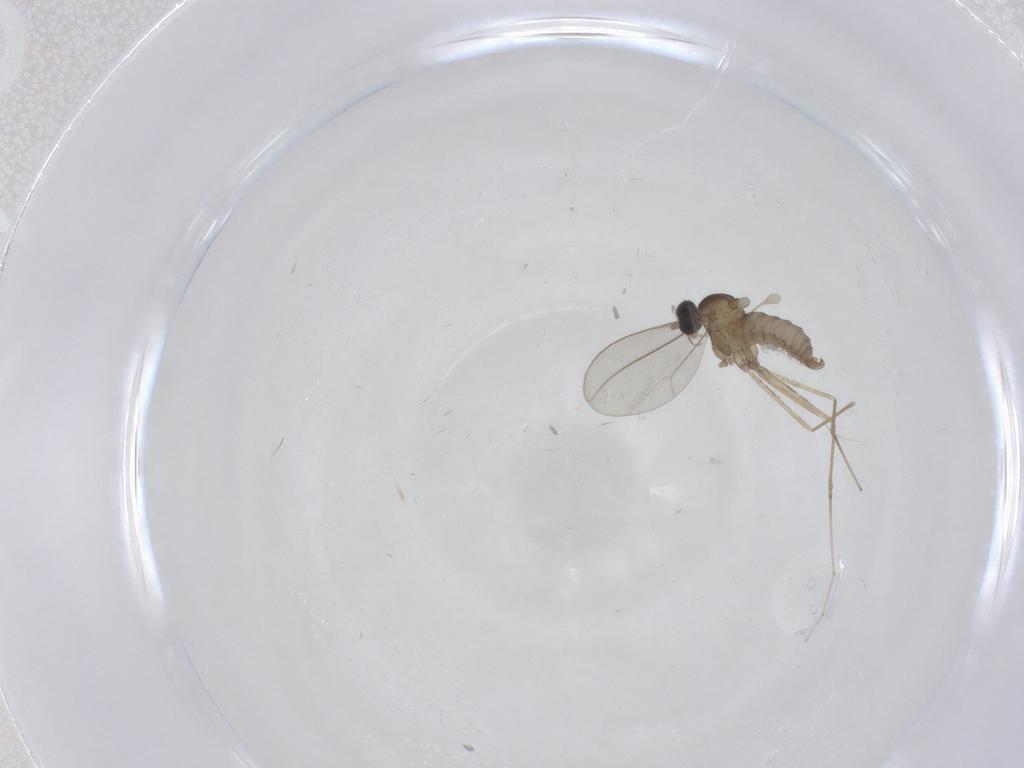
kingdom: Animalia
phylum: Arthropoda
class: Insecta
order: Diptera
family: Cecidomyiidae
